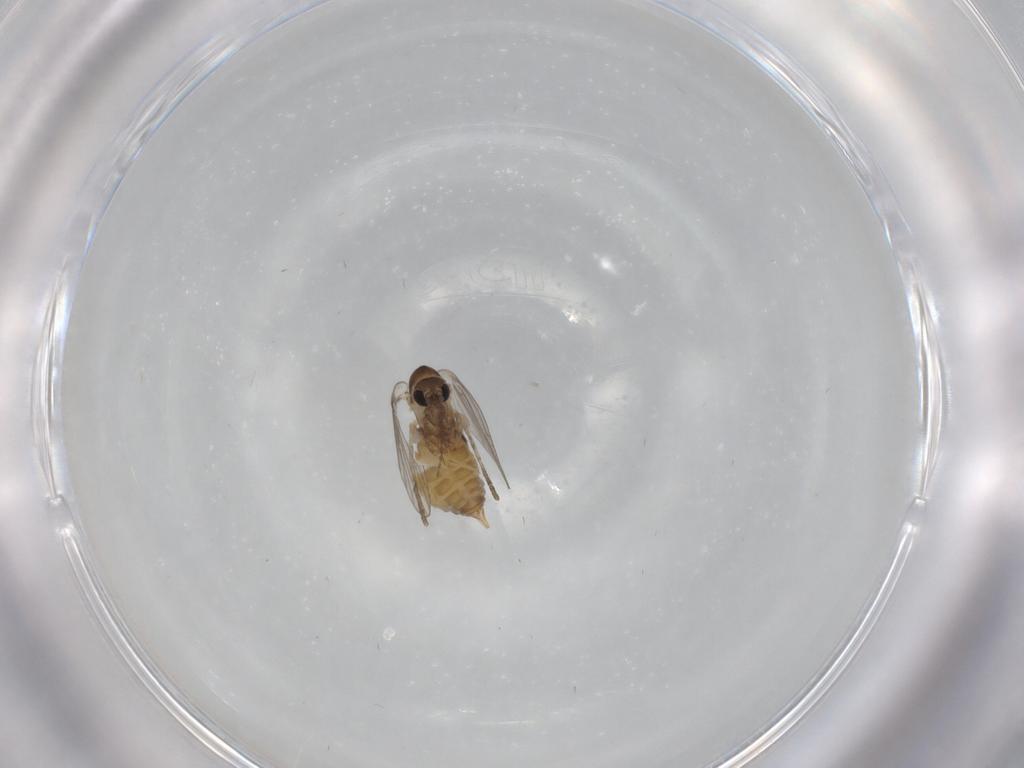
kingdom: Animalia
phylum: Arthropoda
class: Insecta
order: Diptera
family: Psychodidae
